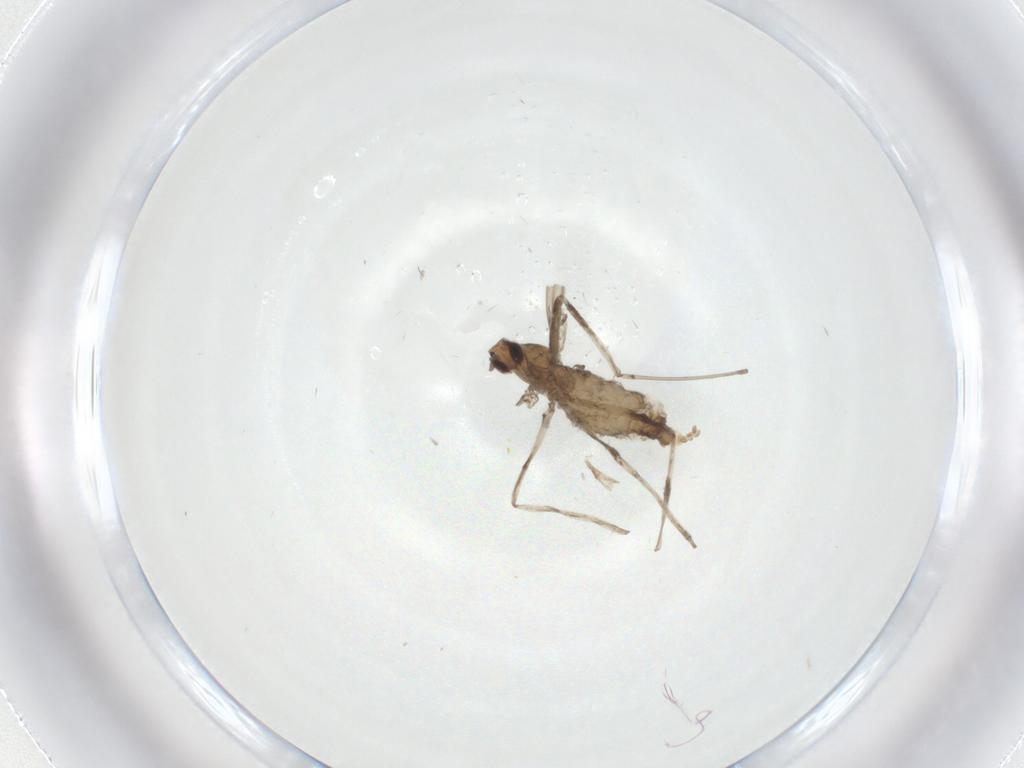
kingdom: Animalia
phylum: Arthropoda
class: Insecta
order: Diptera
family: Cecidomyiidae
